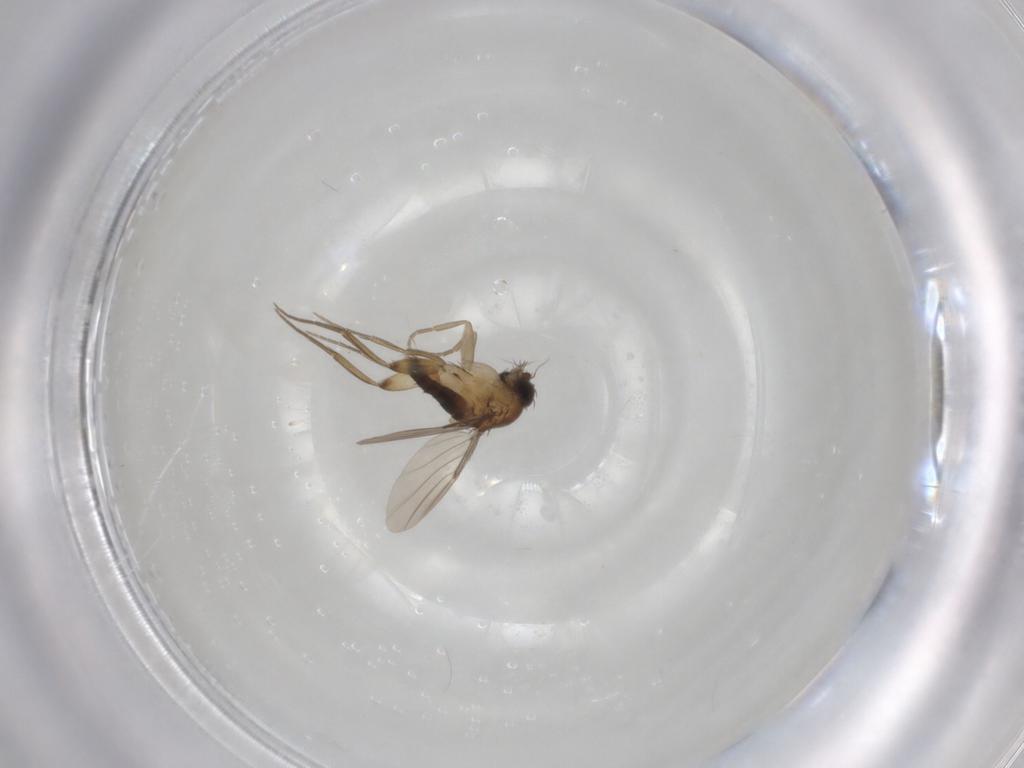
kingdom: Animalia
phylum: Arthropoda
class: Insecta
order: Diptera
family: Phoridae
